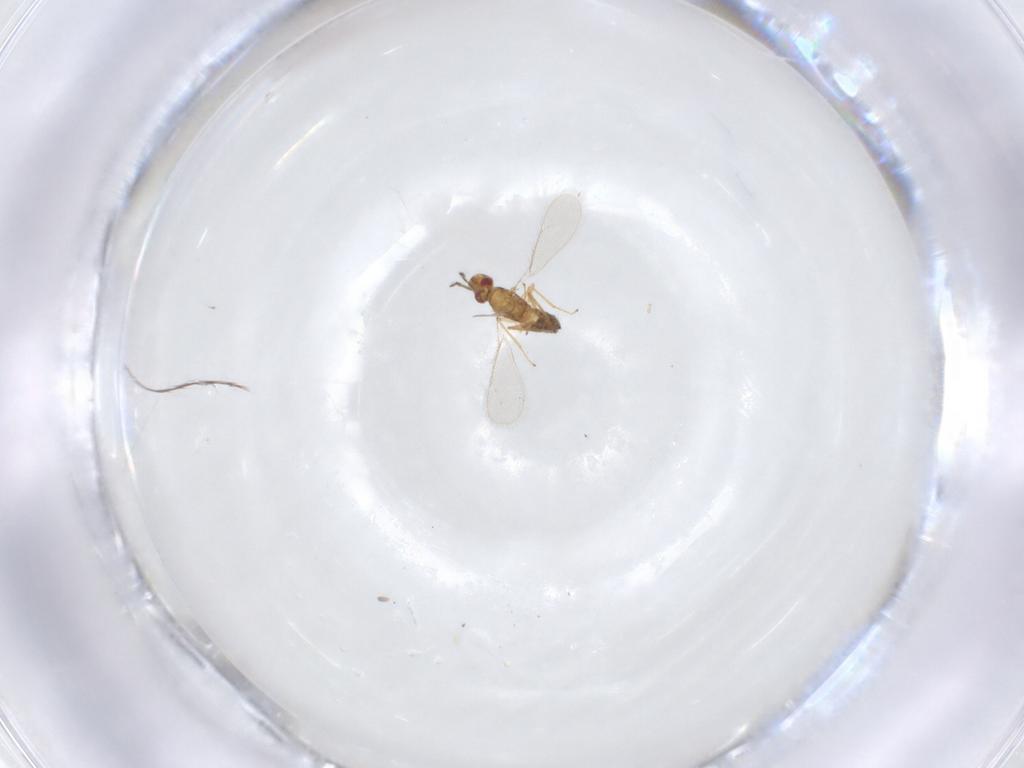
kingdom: Animalia
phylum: Arthropoda
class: Insecta
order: Hymenoptera
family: Eulophidae
